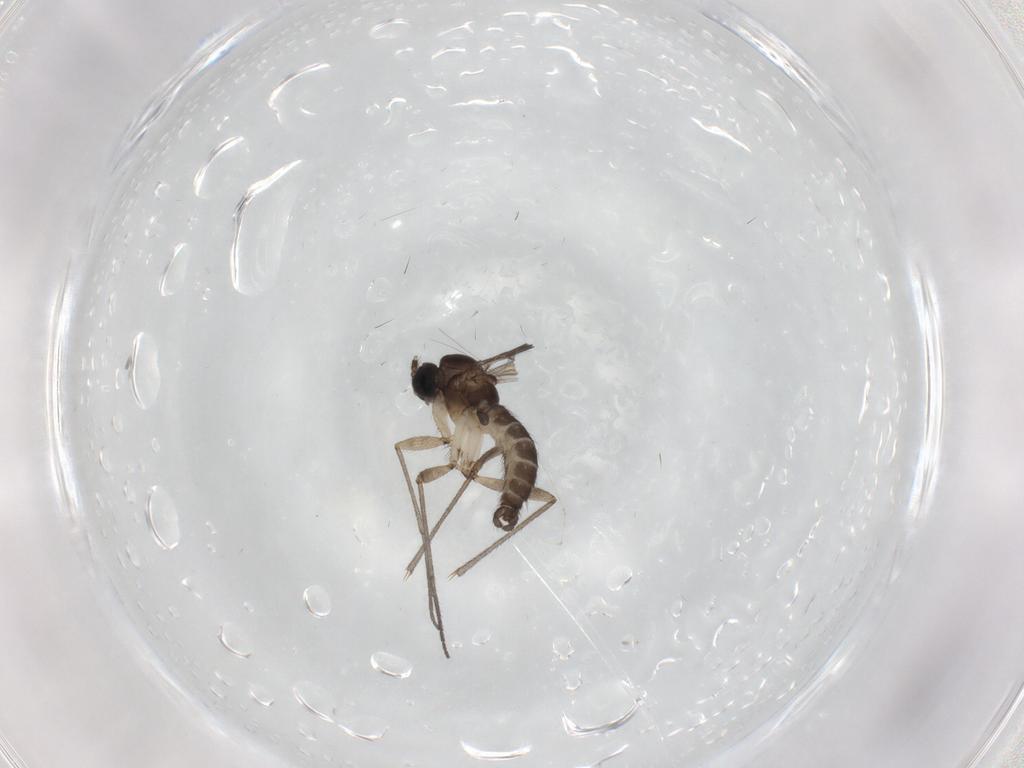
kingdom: Animalia
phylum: Arthropoda
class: Insecta
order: Diptera
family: Sciaridae
